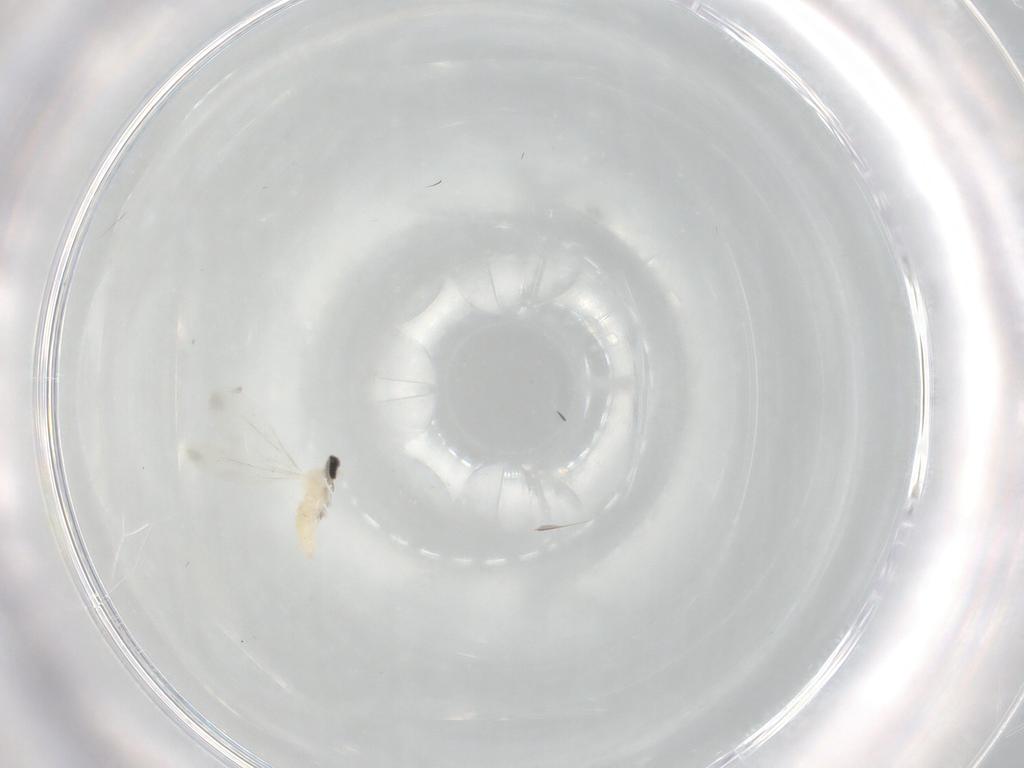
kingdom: Animalia
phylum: Arthropoda
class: Insecta
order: Diptera
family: Cecidomyiidae
